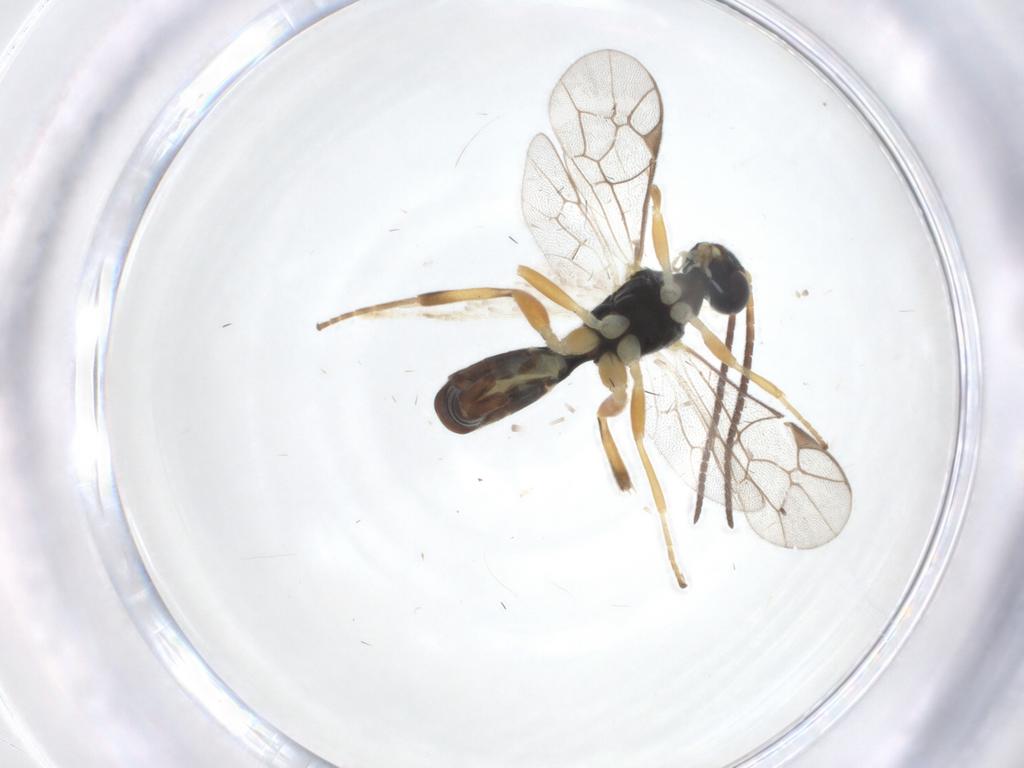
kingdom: Animalia
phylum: Arthropoda
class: Insecta
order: Hymenoptera
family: Ichneumonidae
